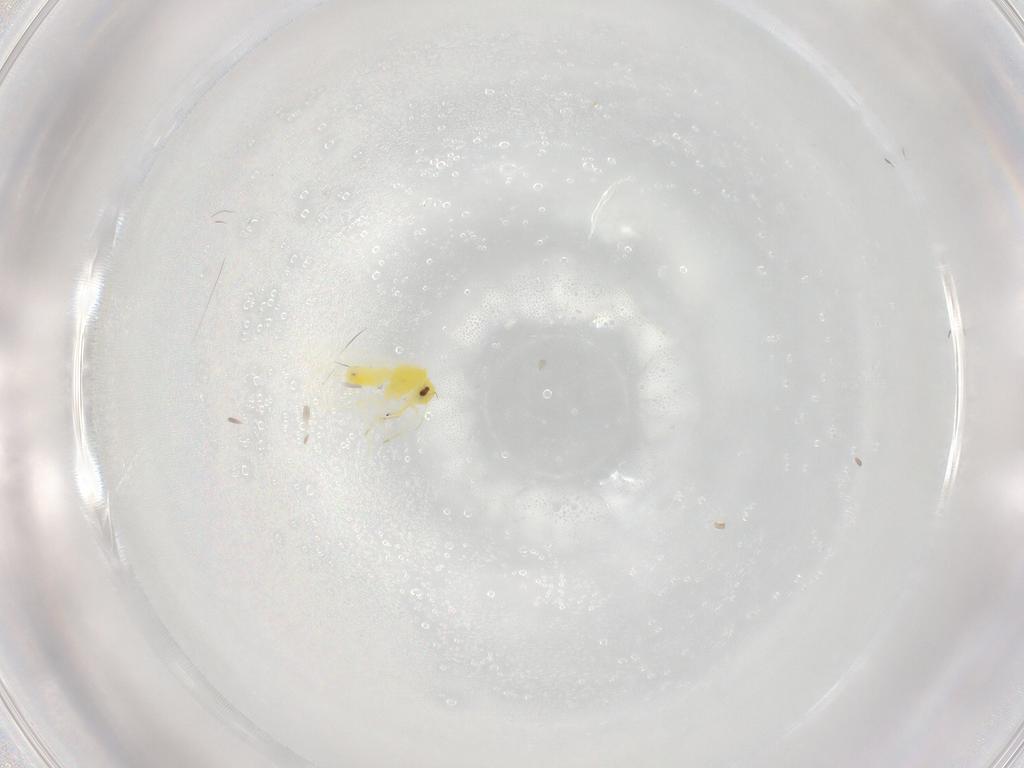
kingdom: Animalia
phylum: Arthropoda
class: Insecta
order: Hemiptera
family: Aleyrodidae
